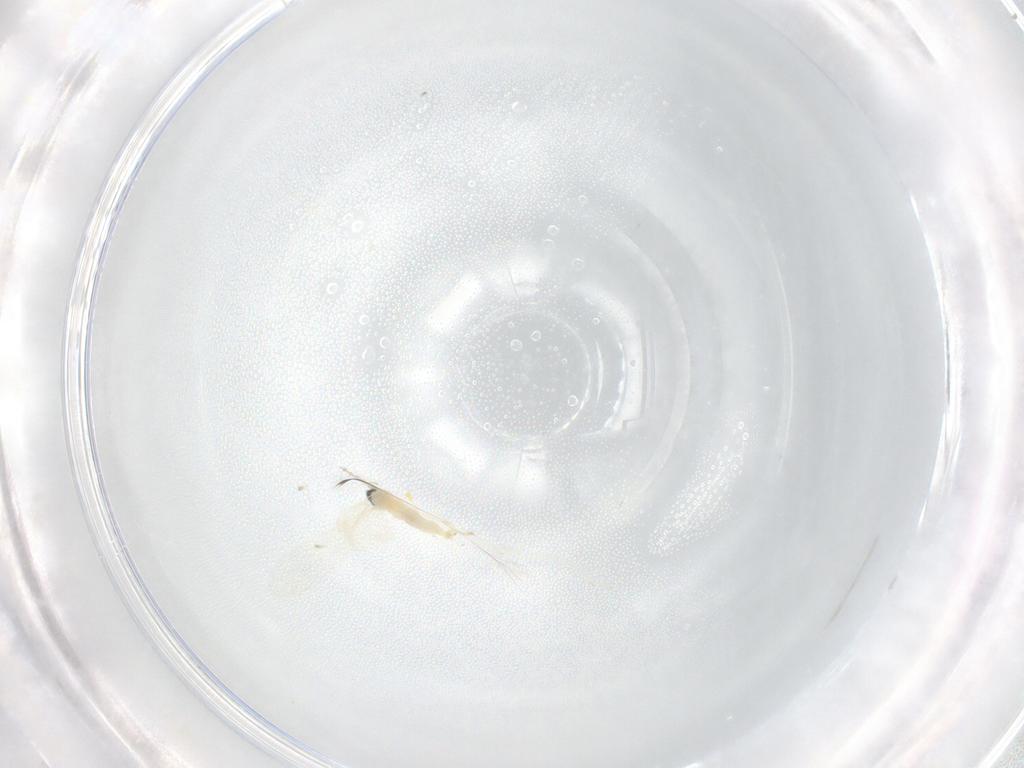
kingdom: Animalia
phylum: Arthropoda
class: Insecta
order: Diptera
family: Cecidomyiidae
